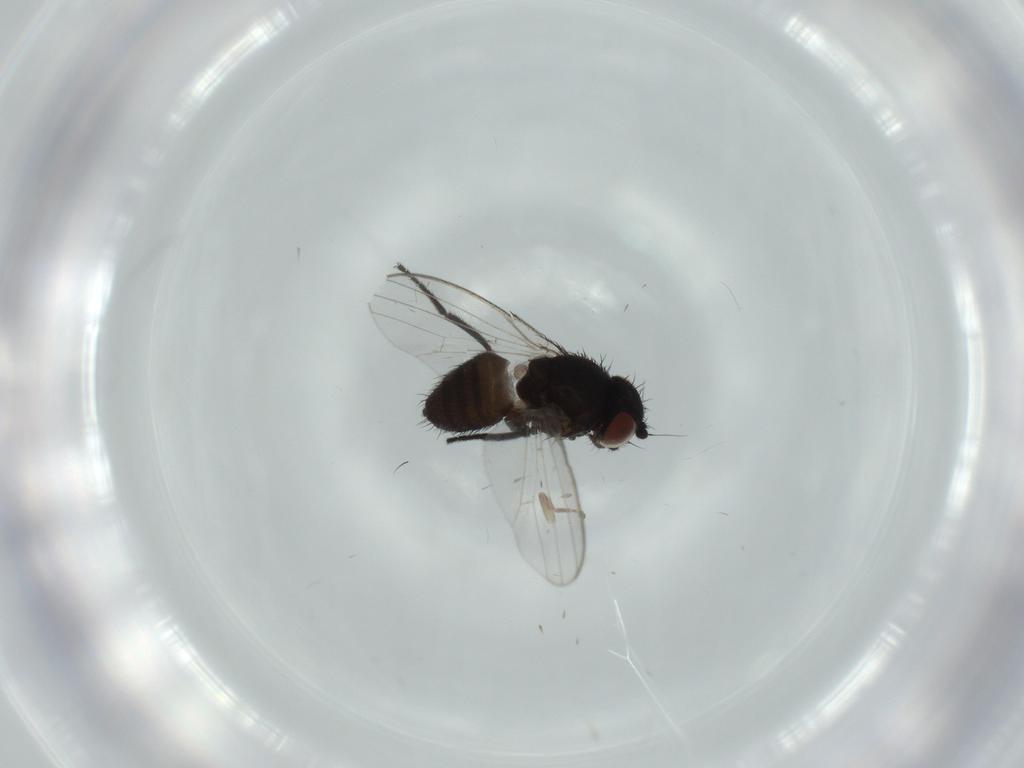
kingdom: Animalia
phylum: Arthropoda
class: Insecta
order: Diptera
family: Milichiidae
